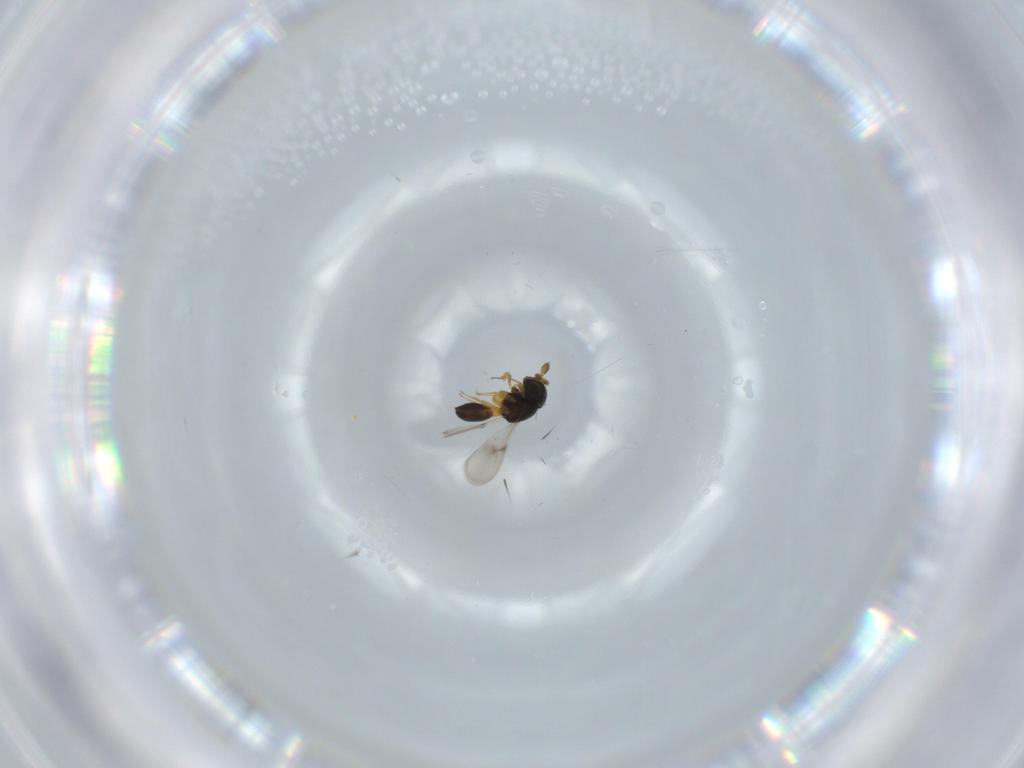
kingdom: Animalia
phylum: Arthropoda
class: Insecta
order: Hymenoptera
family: Scelionidae
